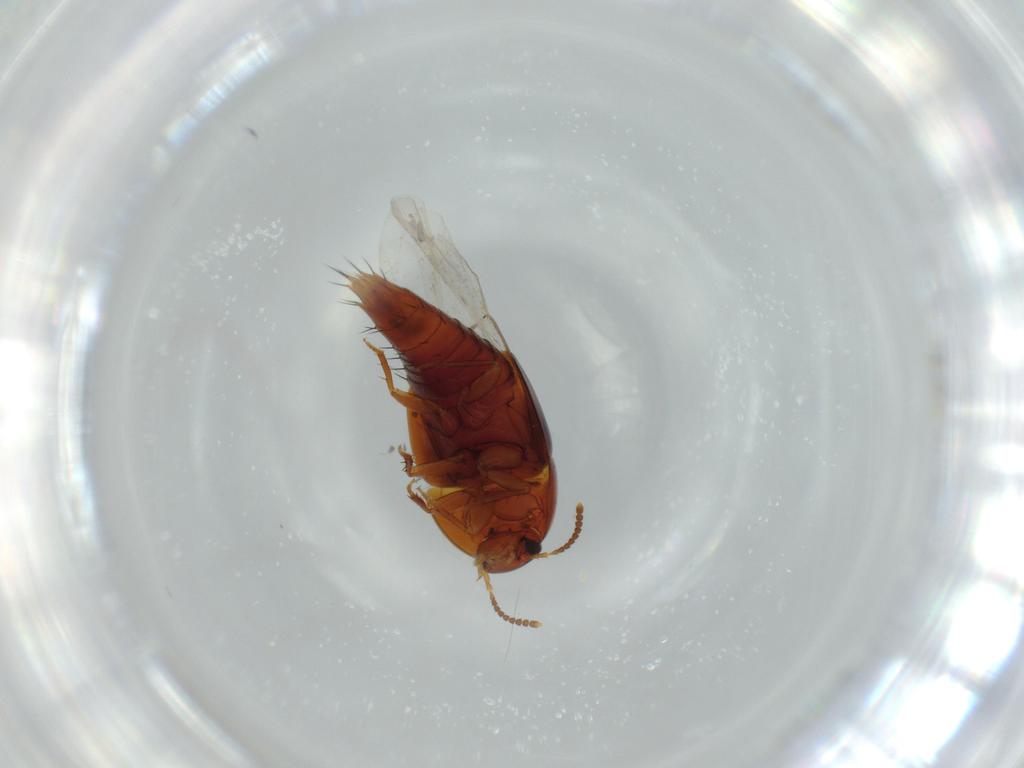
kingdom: Animalia
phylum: Arthropoda
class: Insecta
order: Coleoptera
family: Staphylinidae
